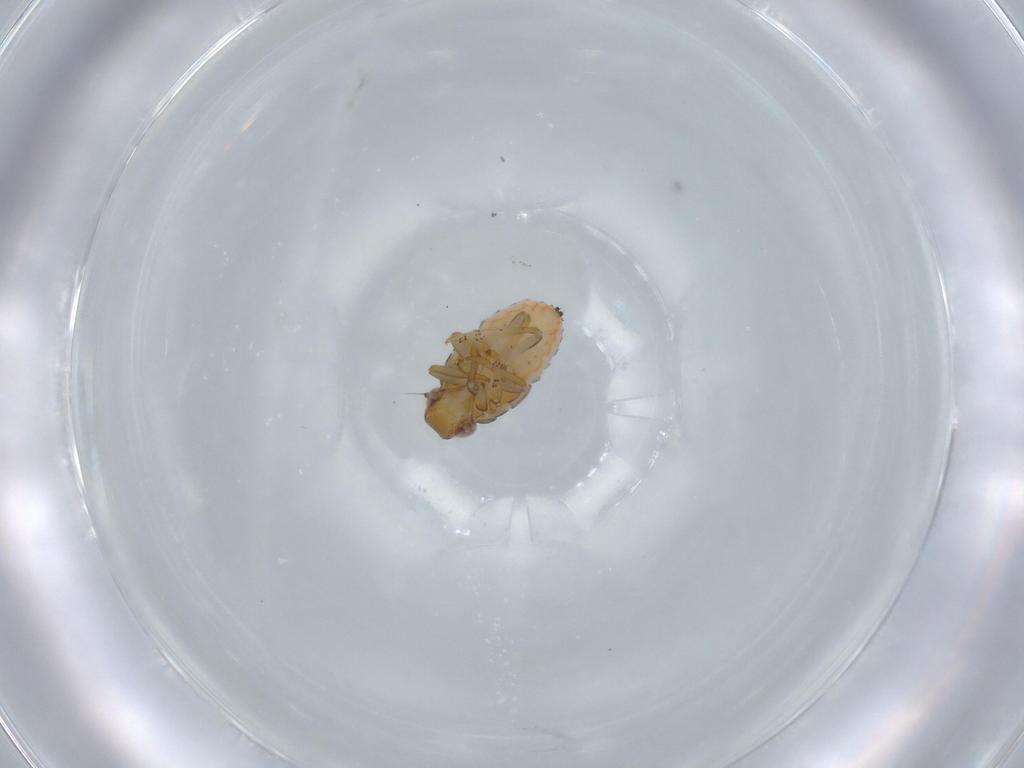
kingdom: Animalia
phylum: Arthropoda
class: Insecta
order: Hemiptera
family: Issidae
